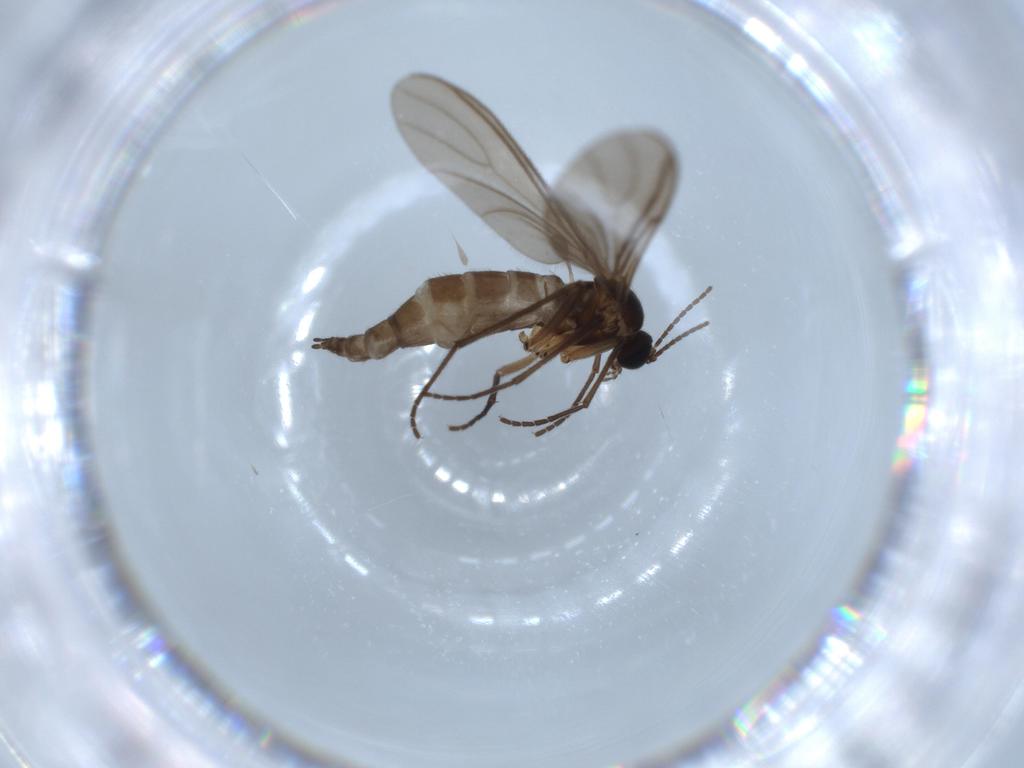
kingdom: Animalia
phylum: Arthropoda
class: Insecta
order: Diptera
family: Sciaridae
